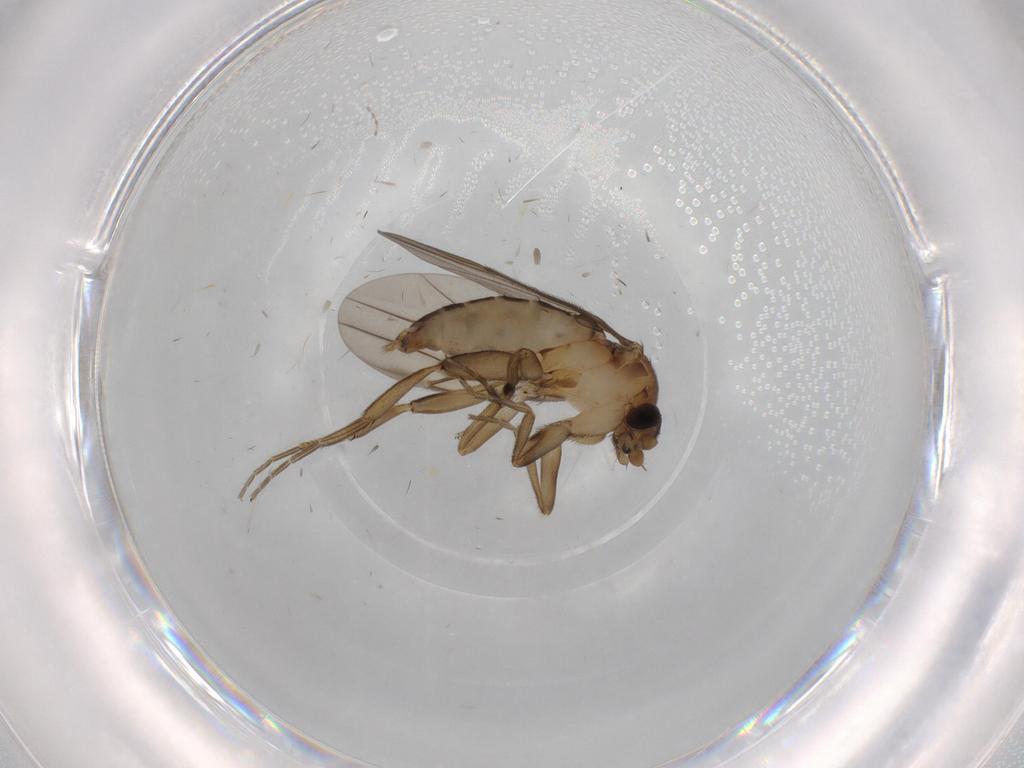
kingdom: Animalia
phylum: Arthropoda
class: Insecta
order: Diptera
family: Phoridae
